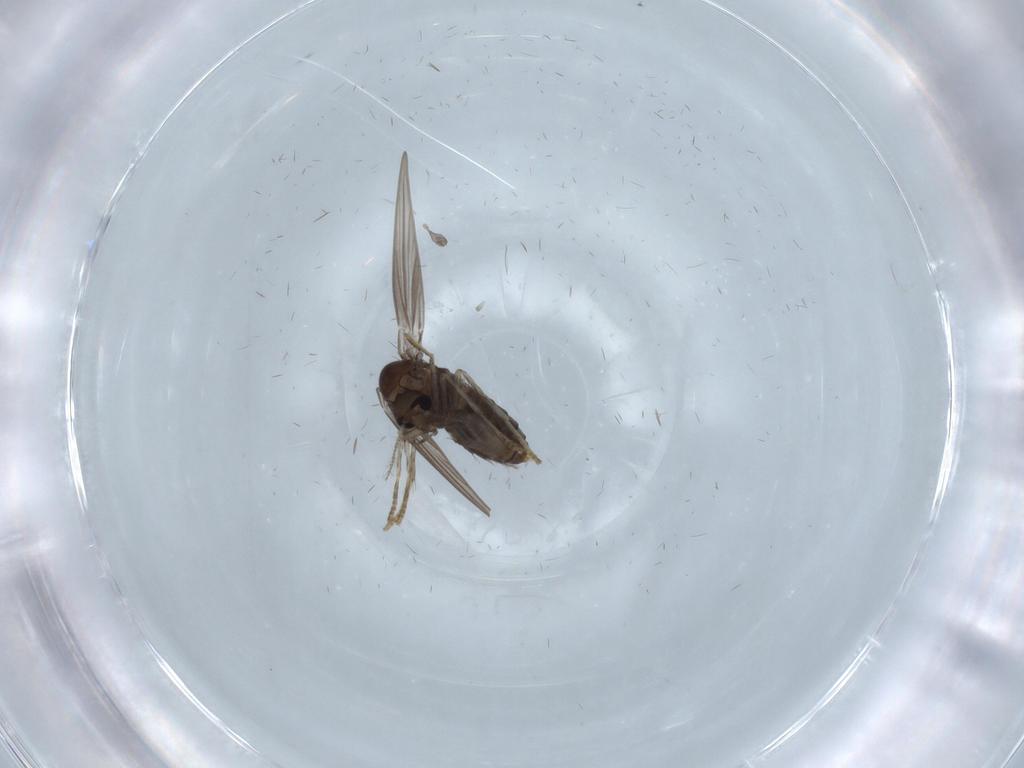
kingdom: Animalia
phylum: Arthropoda
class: Insecta
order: Diptera
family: Psychodidae
